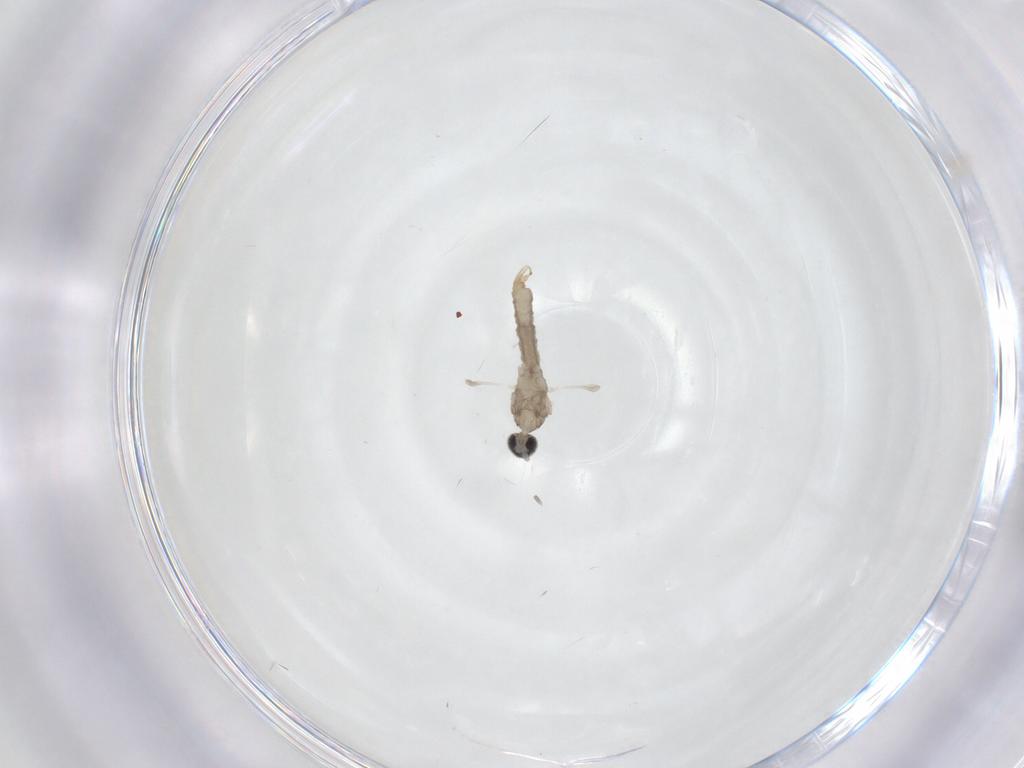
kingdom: Animalia
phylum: Arthropoda
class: Insecta
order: Diptera
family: Cecidomyiidae
